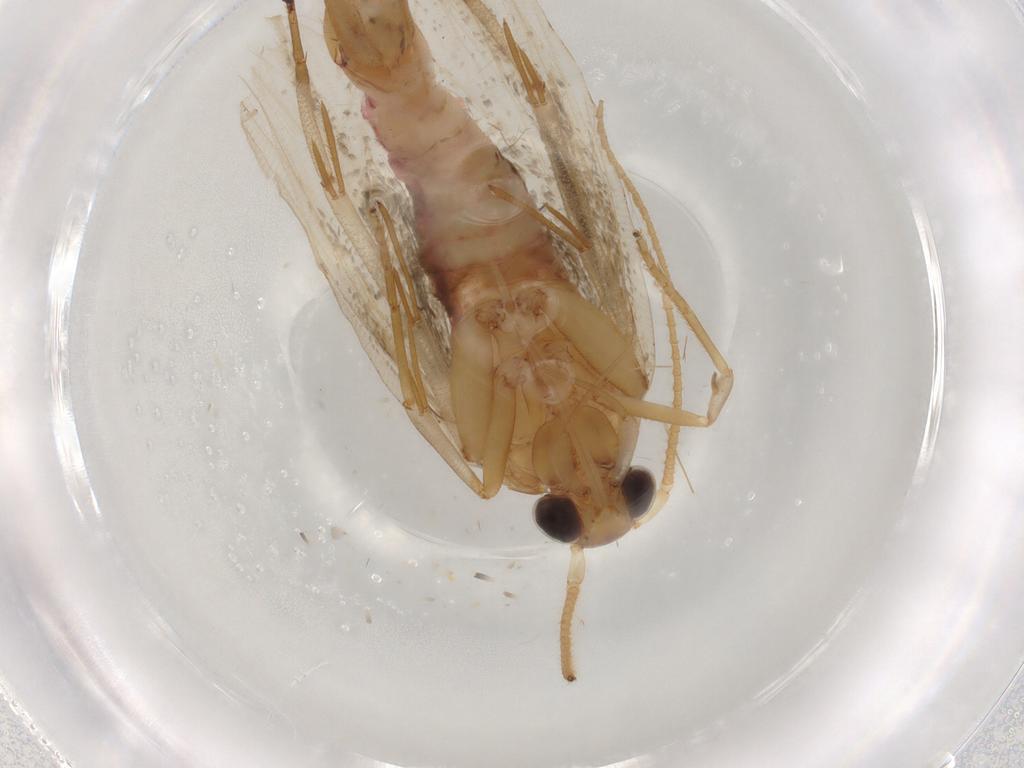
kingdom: Animalia
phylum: Arthropoda
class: Insecta
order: Lepidoptera
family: Lecithoceridae
